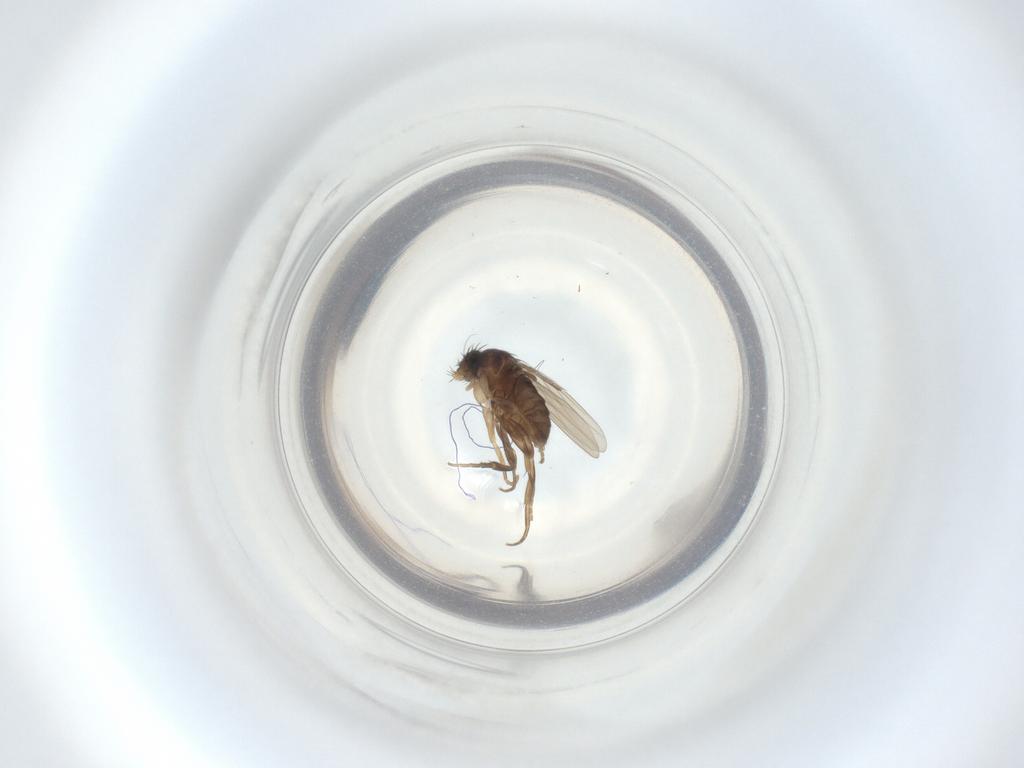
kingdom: Animalia
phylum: Arthropoda
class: Insecta
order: Diptera
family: Phoridae
